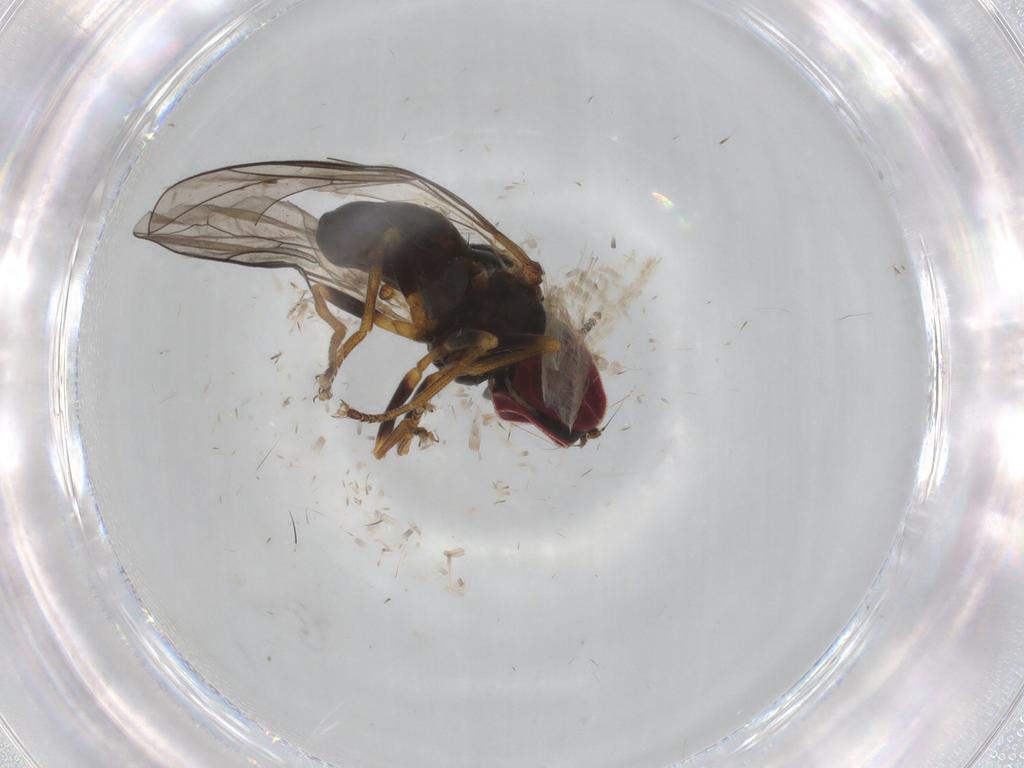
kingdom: Animalia
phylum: Arthropoda
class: Insecta
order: Diptera
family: Pipunculidae
